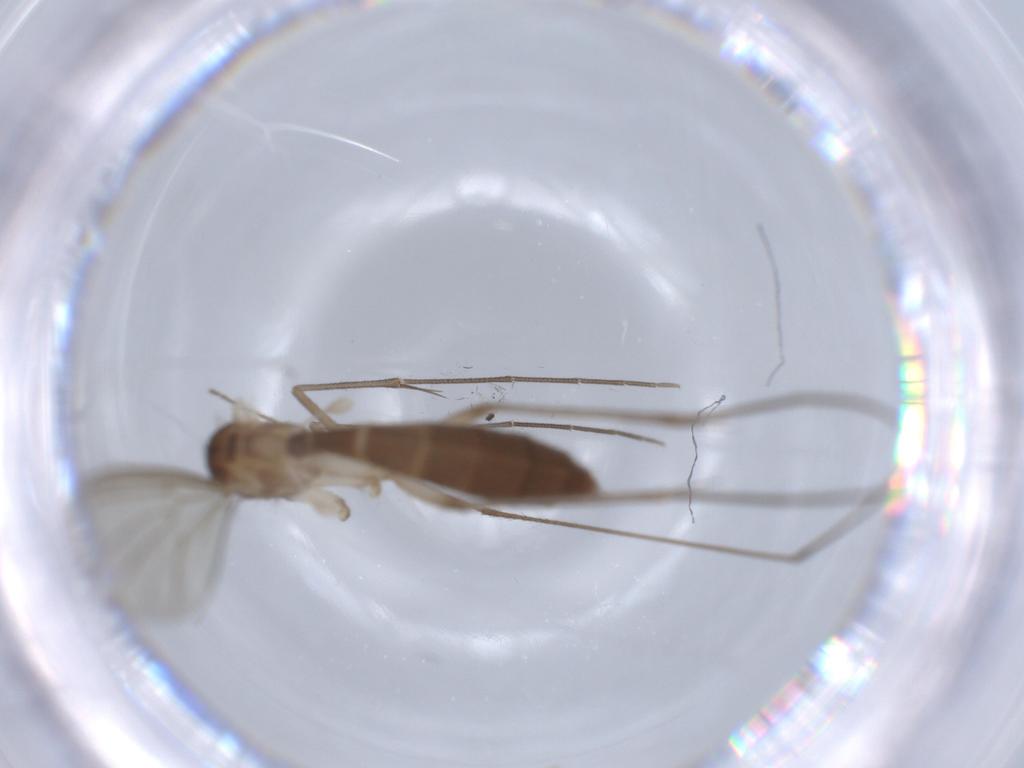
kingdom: Animalia
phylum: Arthropoda
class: Insecta
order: Diptera
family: Mycetophilidae
